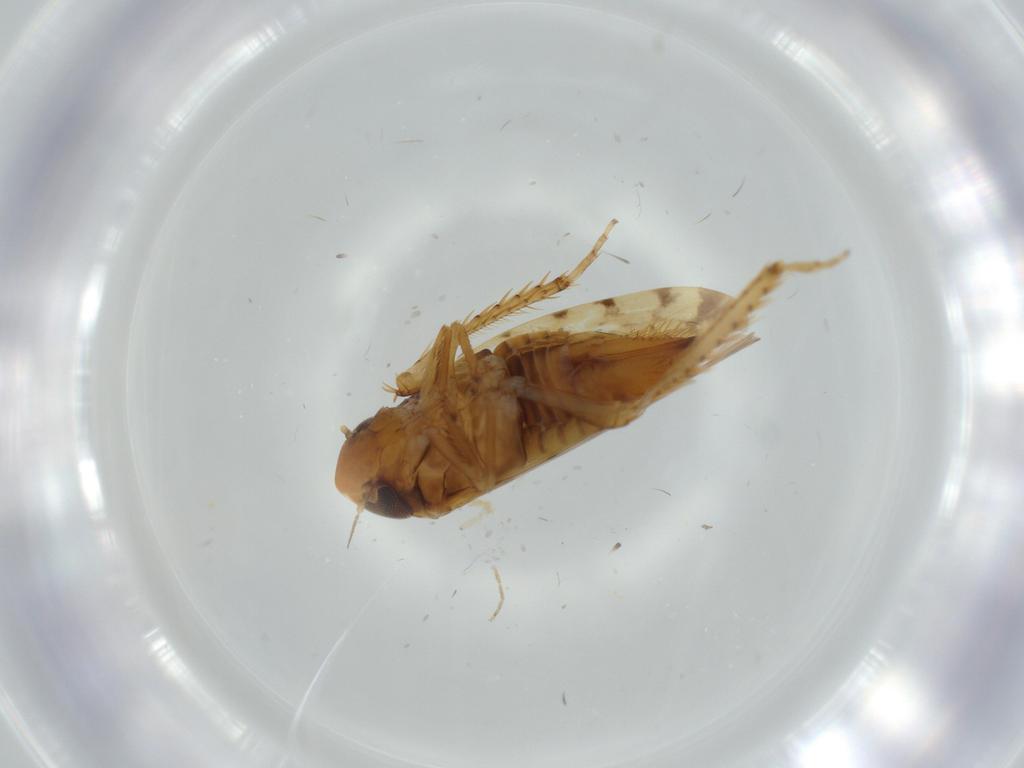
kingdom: Animalia
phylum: Arthropoda
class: Insecta
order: Hemiptera
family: Cicadellidae
